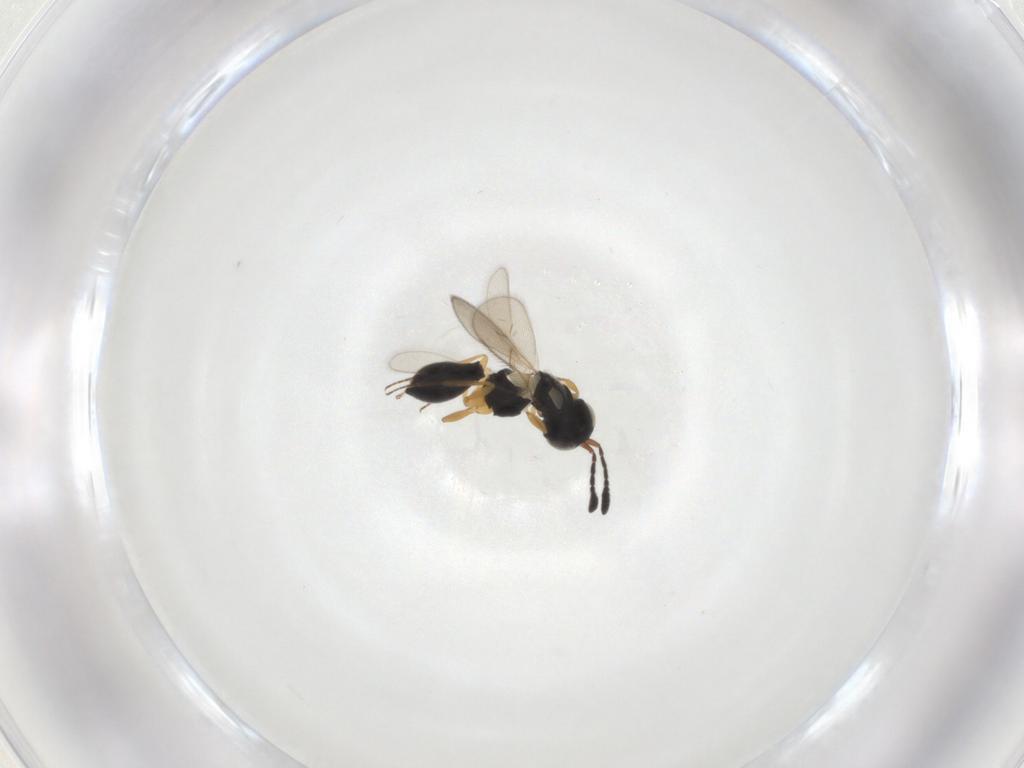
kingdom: Animalia
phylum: Arthropoda
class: Insecta
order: Hymenoptera
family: Scelionidae
